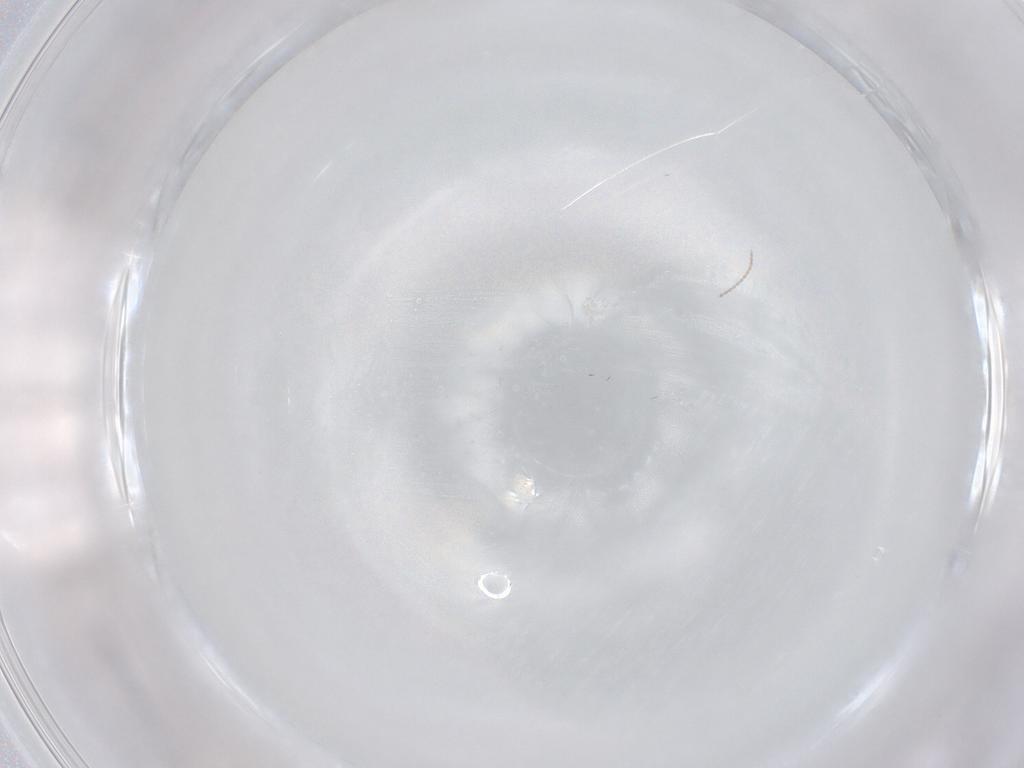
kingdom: Animalia
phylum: Arthropoda
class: Insecta
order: Diptera
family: Cecidomyiidae
